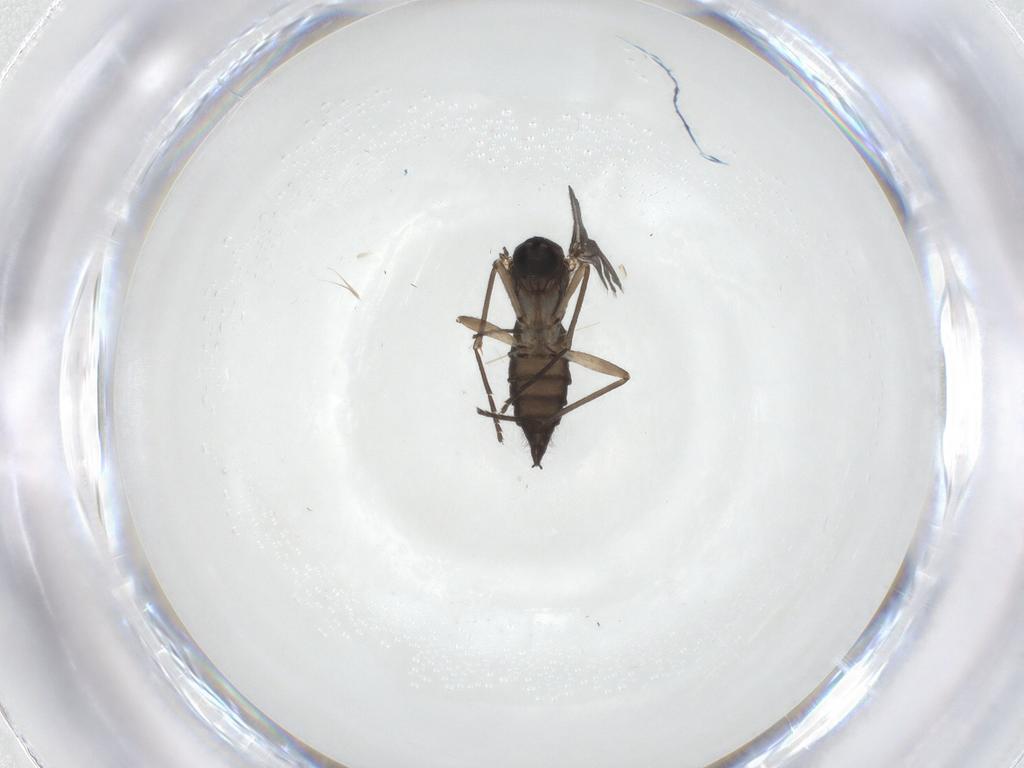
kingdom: Animalia
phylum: Arthropoda
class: Insecta
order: Diptera
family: Sciaridae
